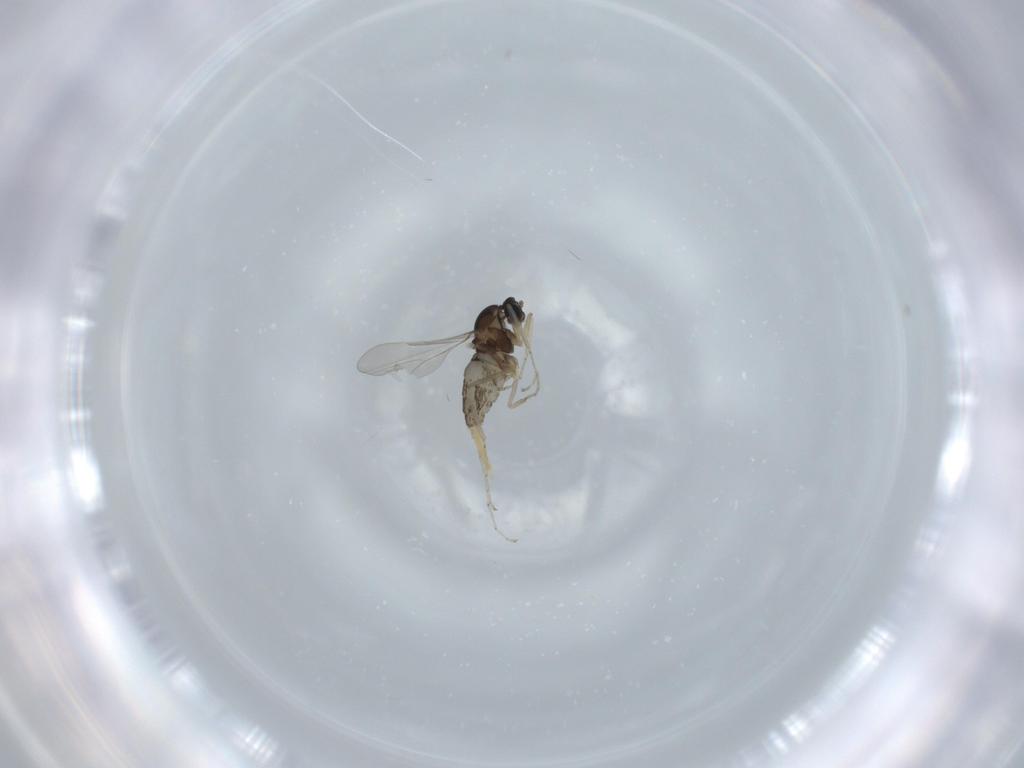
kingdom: Animalia
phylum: Arthropoda
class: Insecta
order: Diptera
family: Cecidomyiidae
